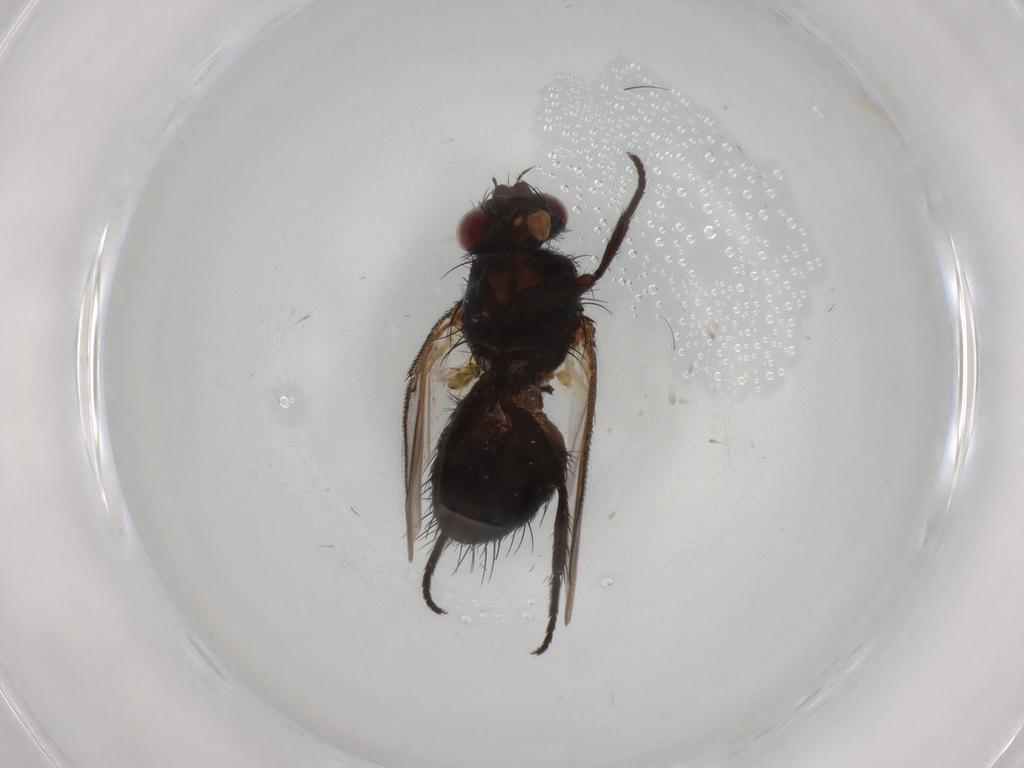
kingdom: Animalia
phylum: Arthropoda
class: Insecta
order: Diptera
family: Tachinidae
